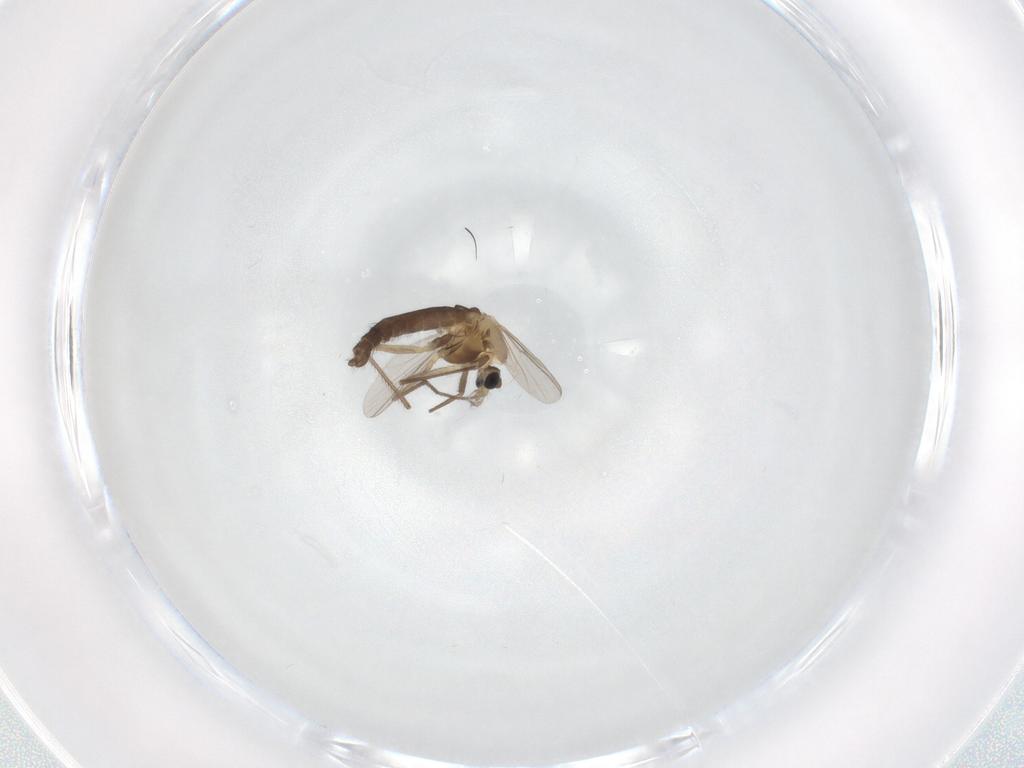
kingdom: Animalia
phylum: Arthropoda
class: Insecta
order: Diptera
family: Chironomidae
